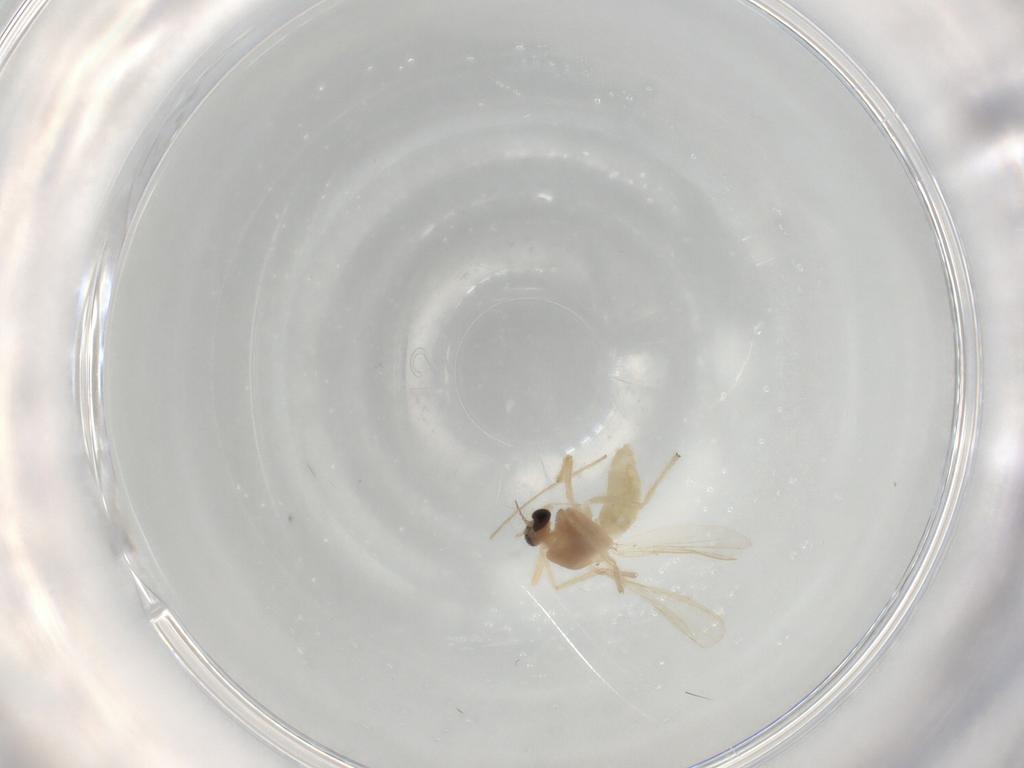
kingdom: Animalia
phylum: Arthropoda
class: Insecta
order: Diptera
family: Chironomidae
